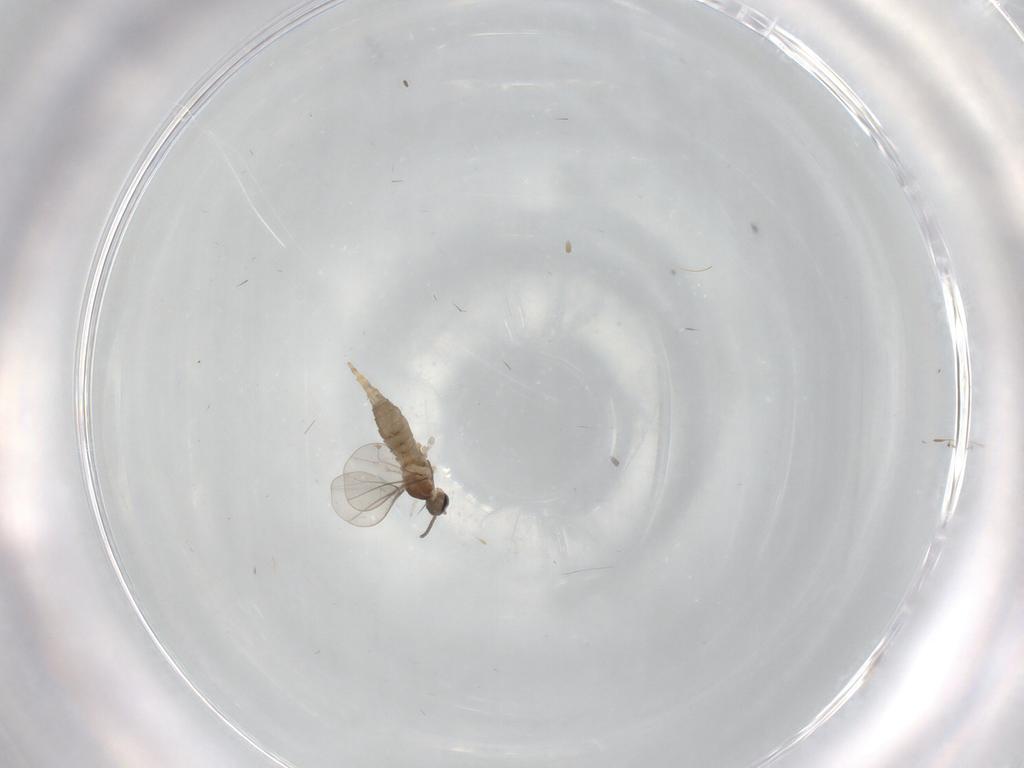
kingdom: Animalia
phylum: Arthropoda
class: Insecta
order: Diptera
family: Cecidomyiidae
